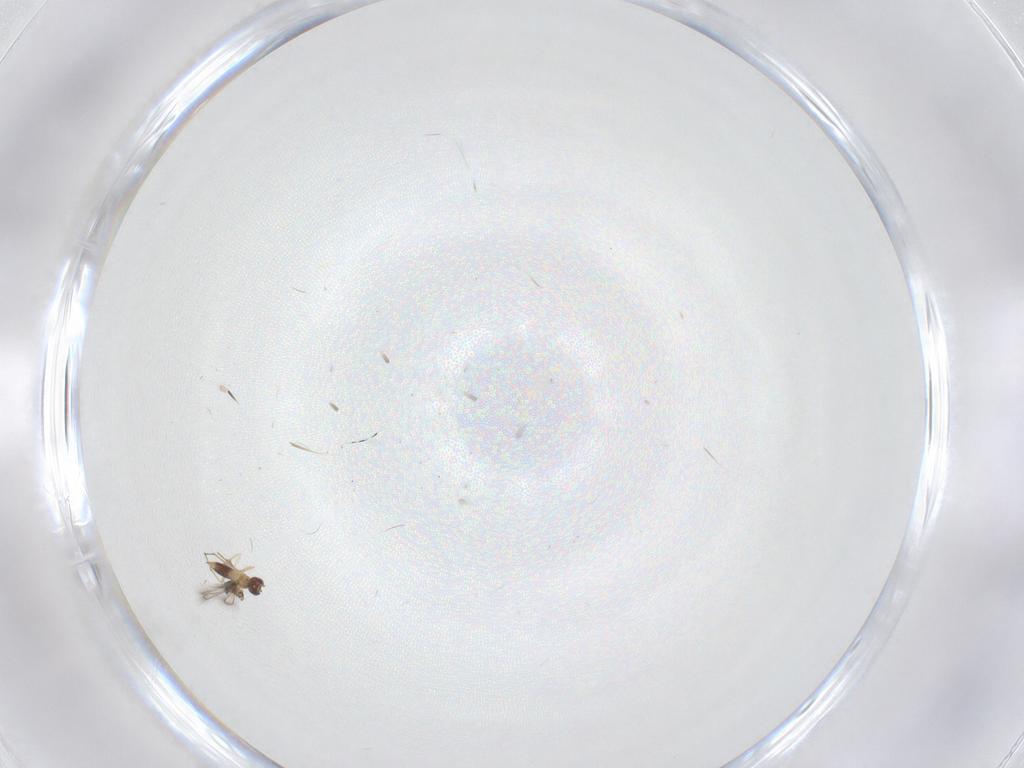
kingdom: Animalia
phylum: Arthropoda
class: Insecta
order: Hymenoptera
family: Mymaridae
